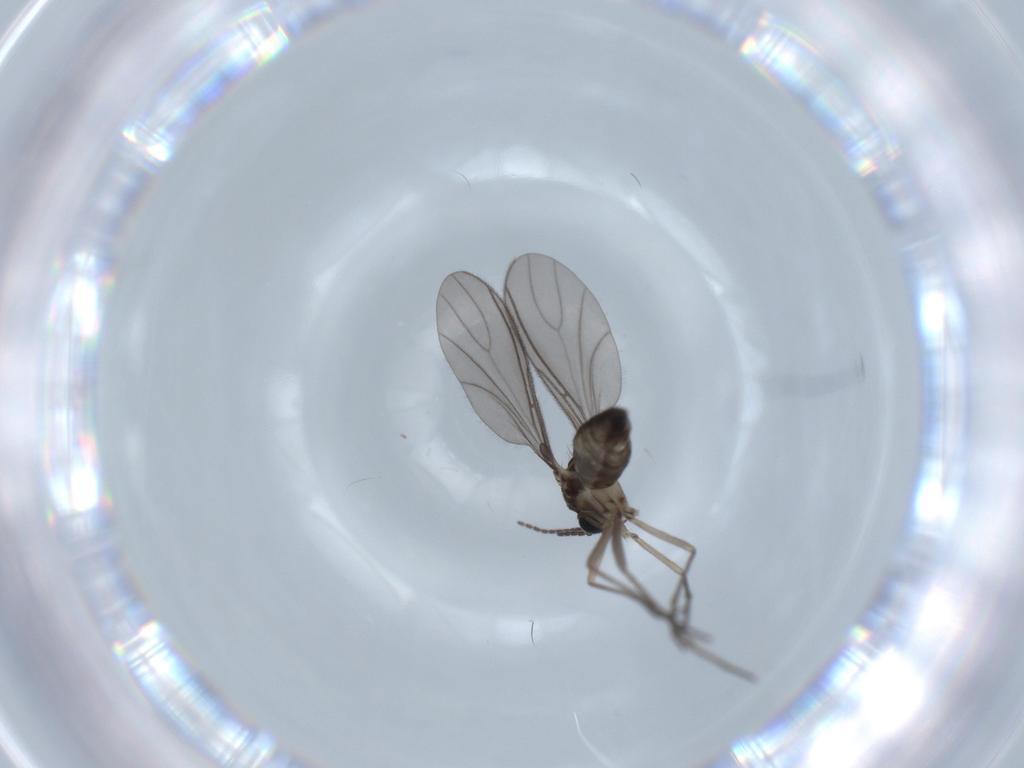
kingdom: Animalia
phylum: Arthropoda
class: Insecta
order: Diptera
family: Sciaridae
